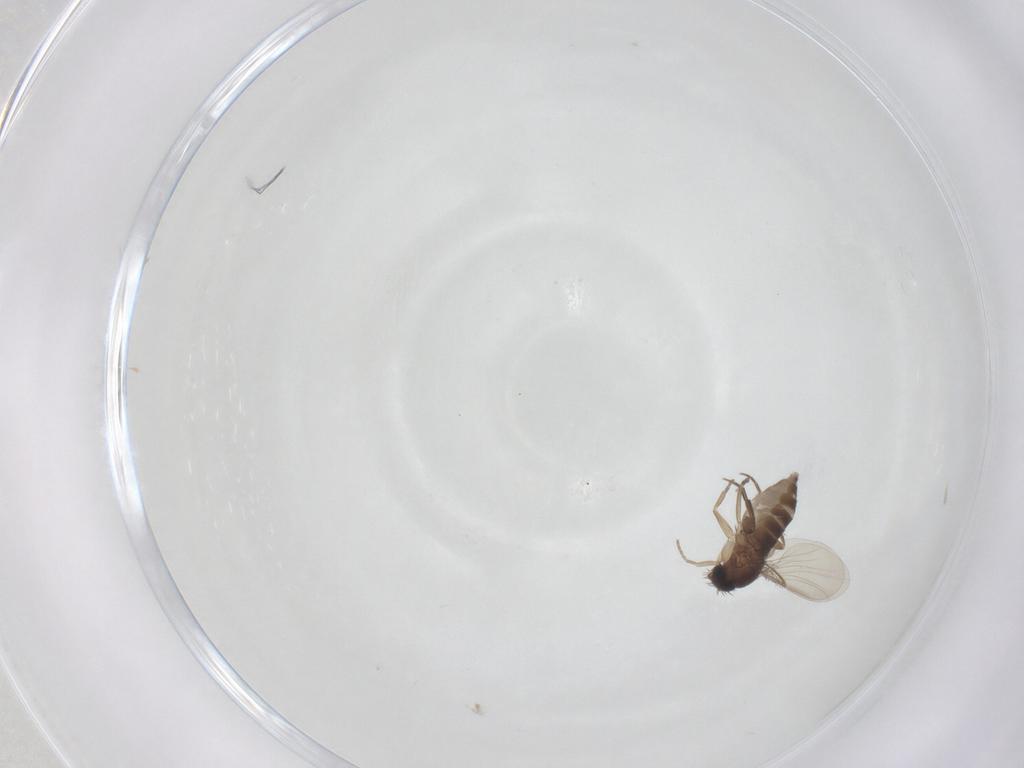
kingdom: Animalia
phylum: Arthropoda
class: Insecta
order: Diptera
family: Phoridae
